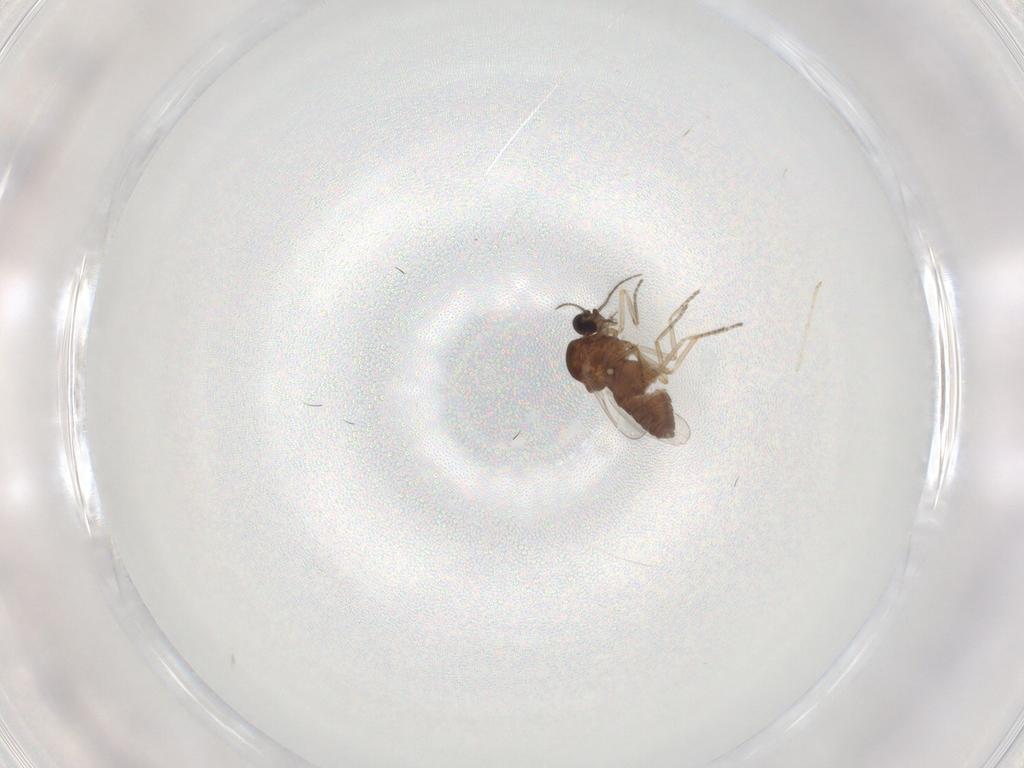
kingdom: Animalia
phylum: Arthropoda
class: Insecta
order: Diptera
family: Ceratopogonidae
